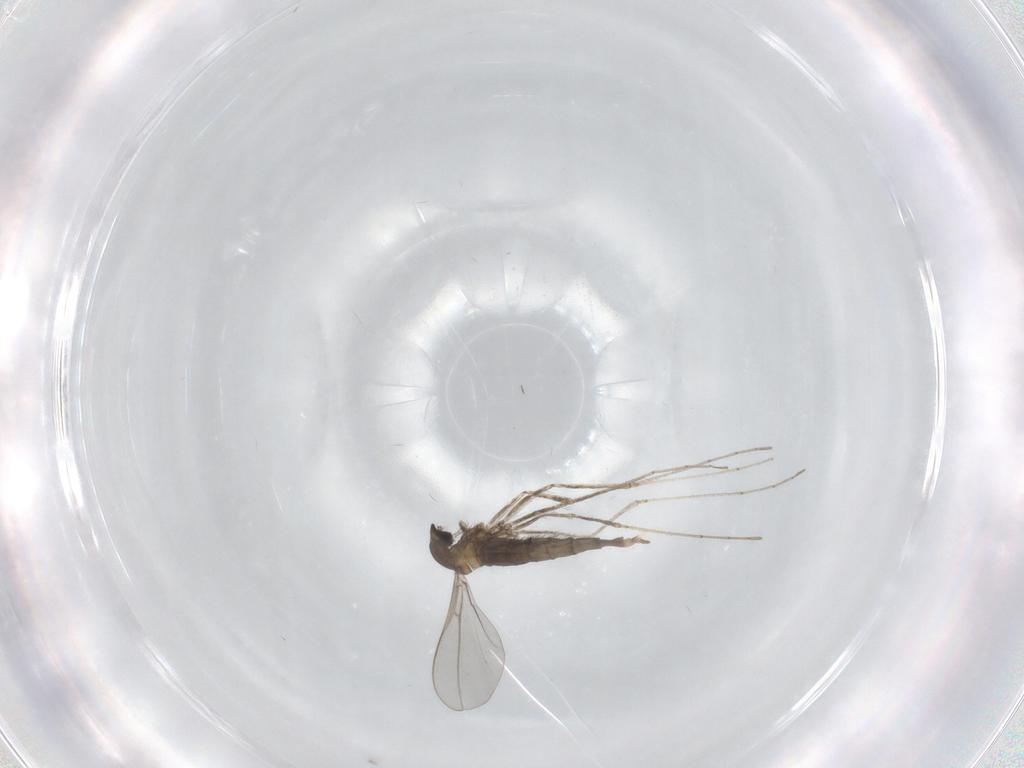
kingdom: Animalia
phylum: Arthropoda
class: Insecta
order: Diptera
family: Cecidomyiidae
